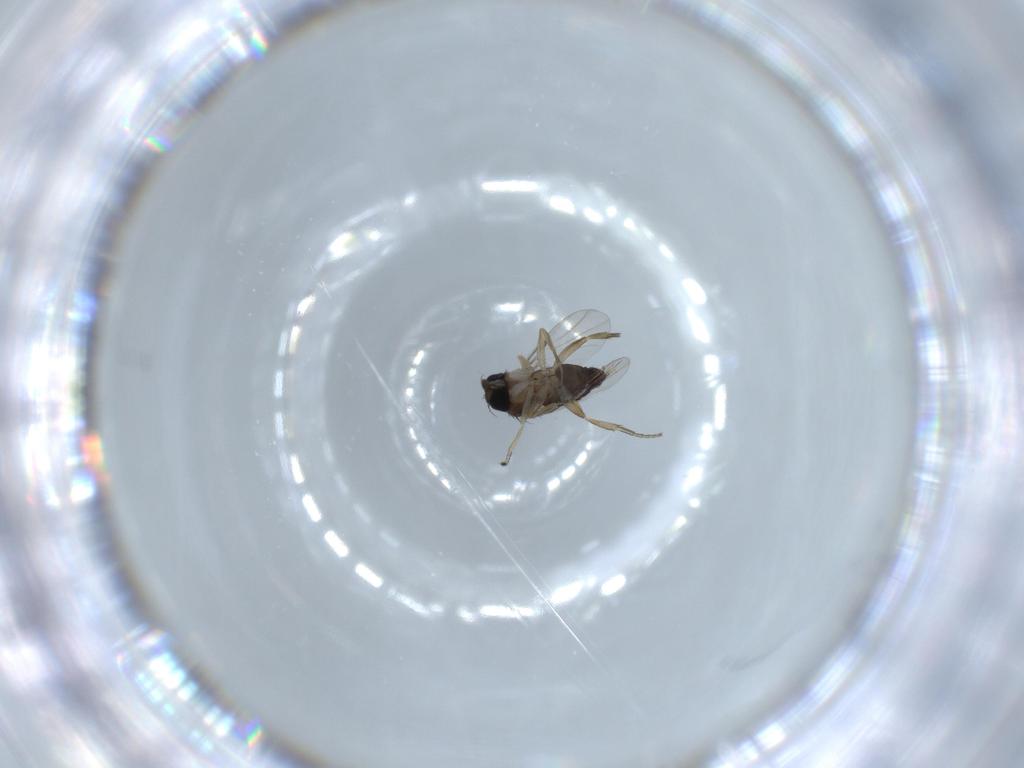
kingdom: Animalia
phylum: Arthropoda
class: Insecta
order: Diptera
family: Phoridae
